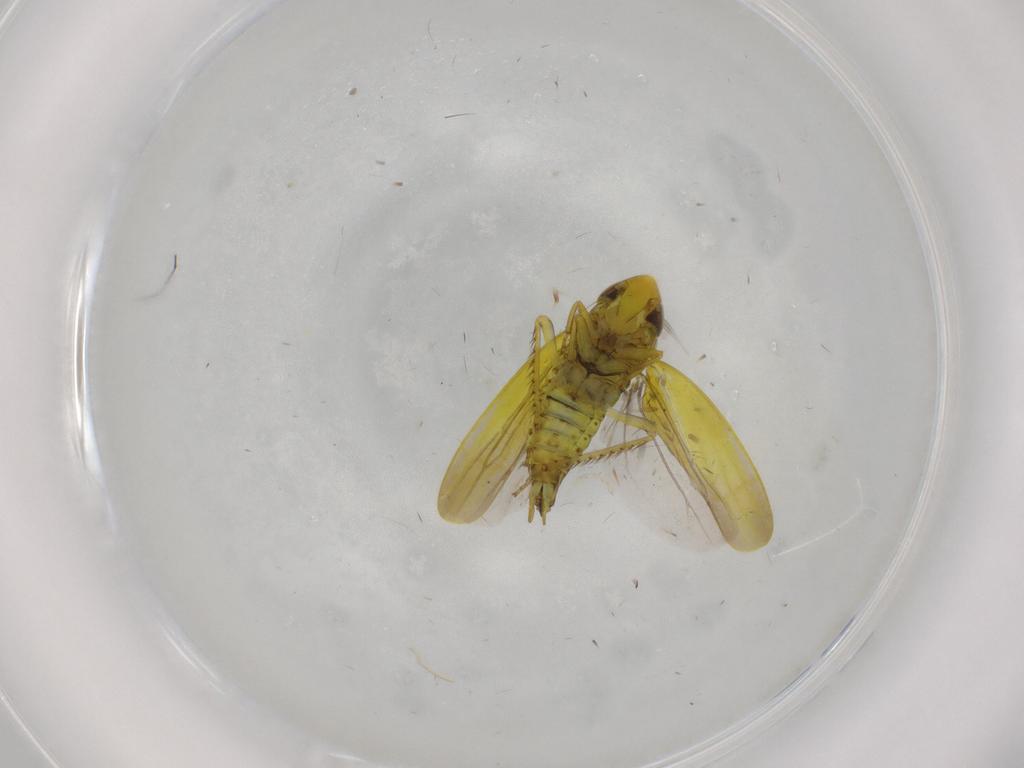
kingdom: Animalia
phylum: Arthropoda
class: Insecta
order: Hemiptera
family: Cicadellidae
